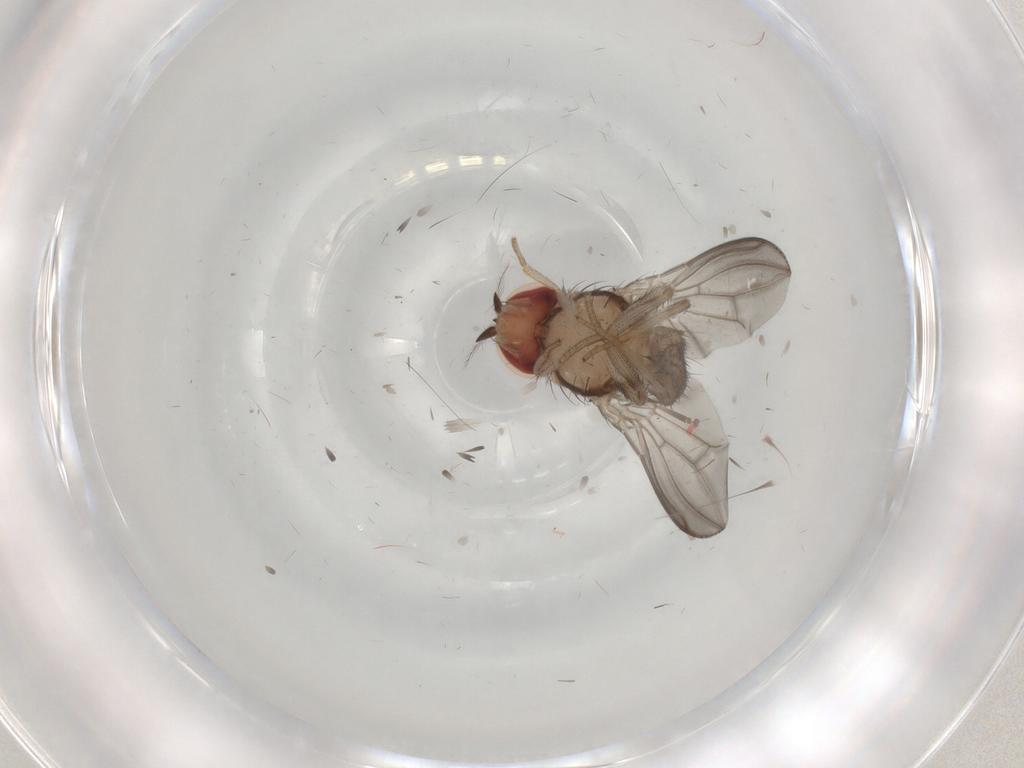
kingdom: Animalia
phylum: Arthropoda
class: Insecta
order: Diptera
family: Chironomidae
